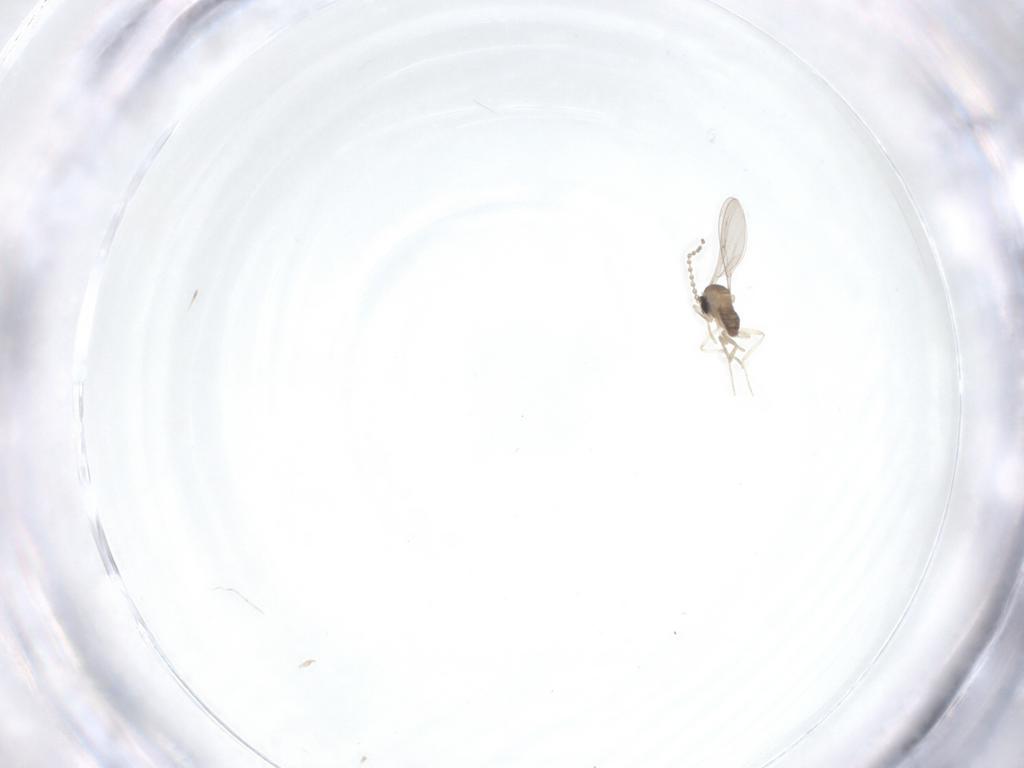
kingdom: Animalia
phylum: Arthropoda
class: Insecta
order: Diptera
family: Cecidomyiidae
